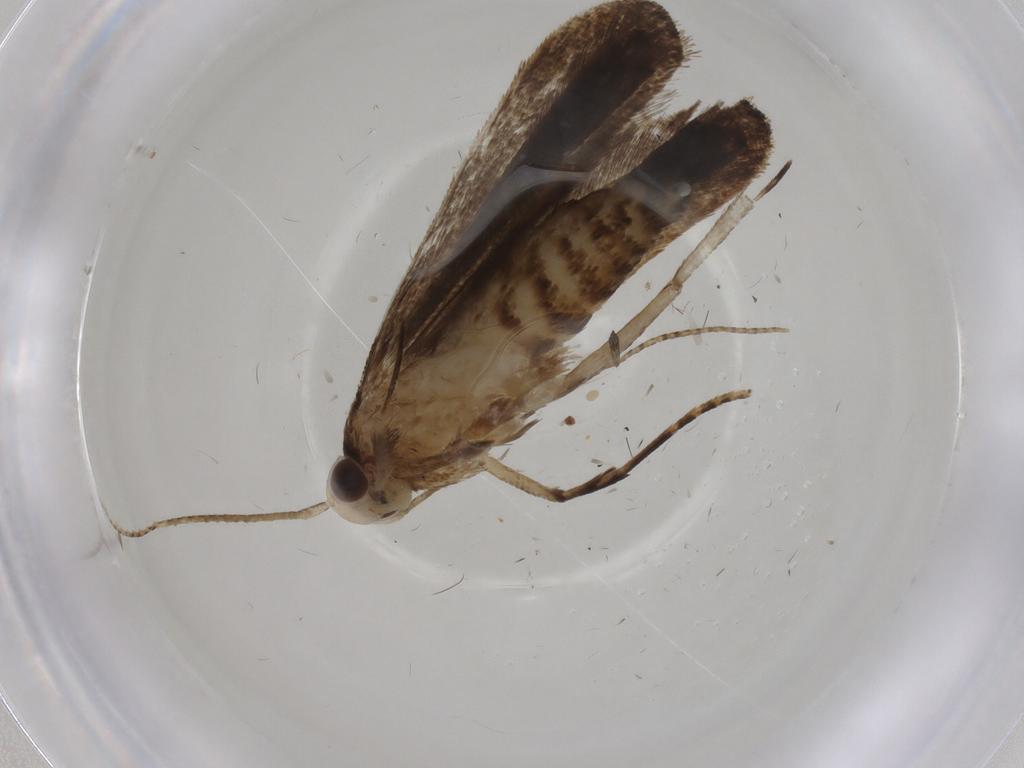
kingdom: Animalia
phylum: Arthropoda
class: Insecta
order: Lepidoptera
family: Gelechiidae
